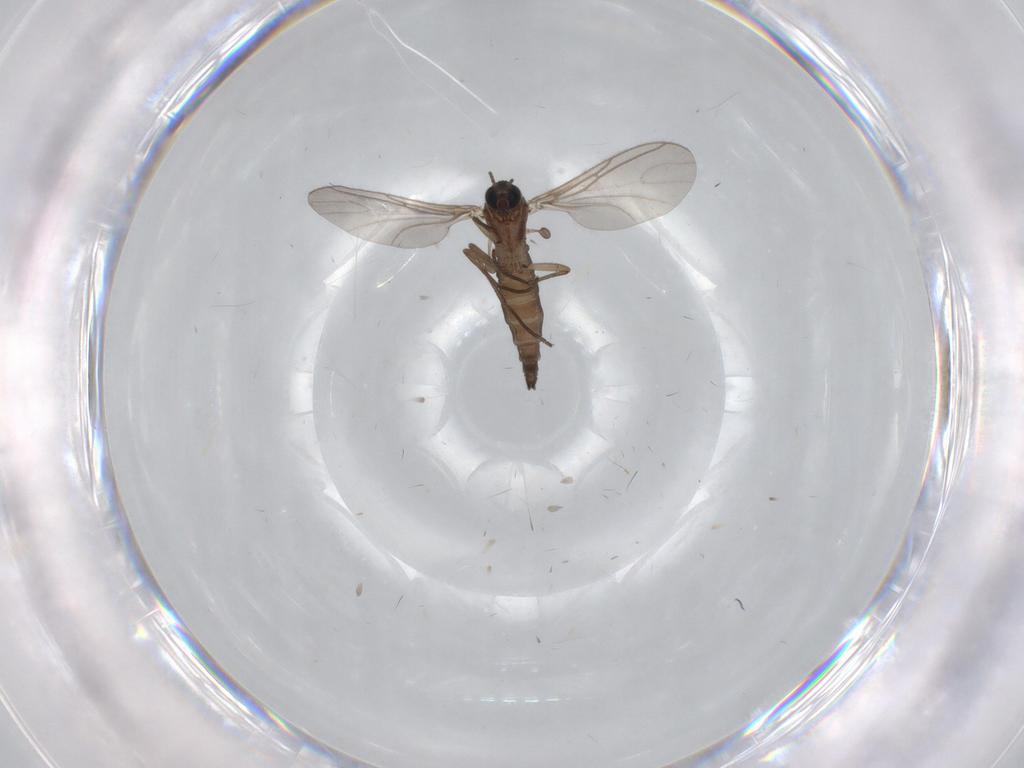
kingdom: Animalia
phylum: Arthropoda
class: Insecta
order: Diptera
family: Sciaridae
